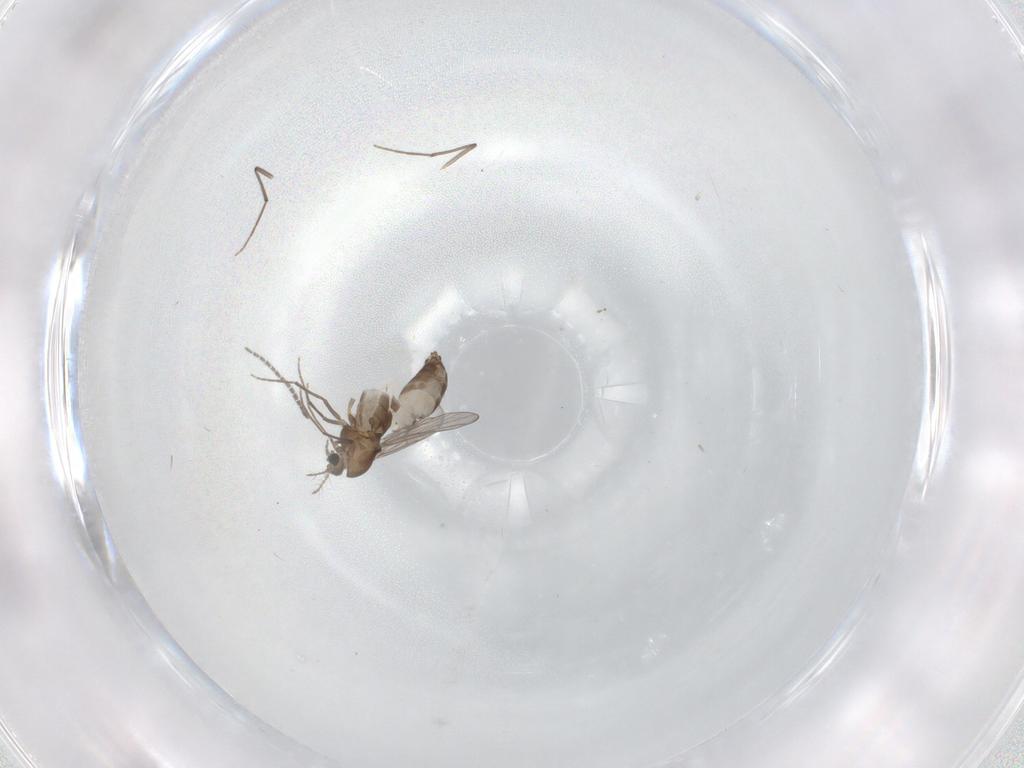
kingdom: Animalia
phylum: Arthropoda
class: Insecta
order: Diptera
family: Chironomidae
